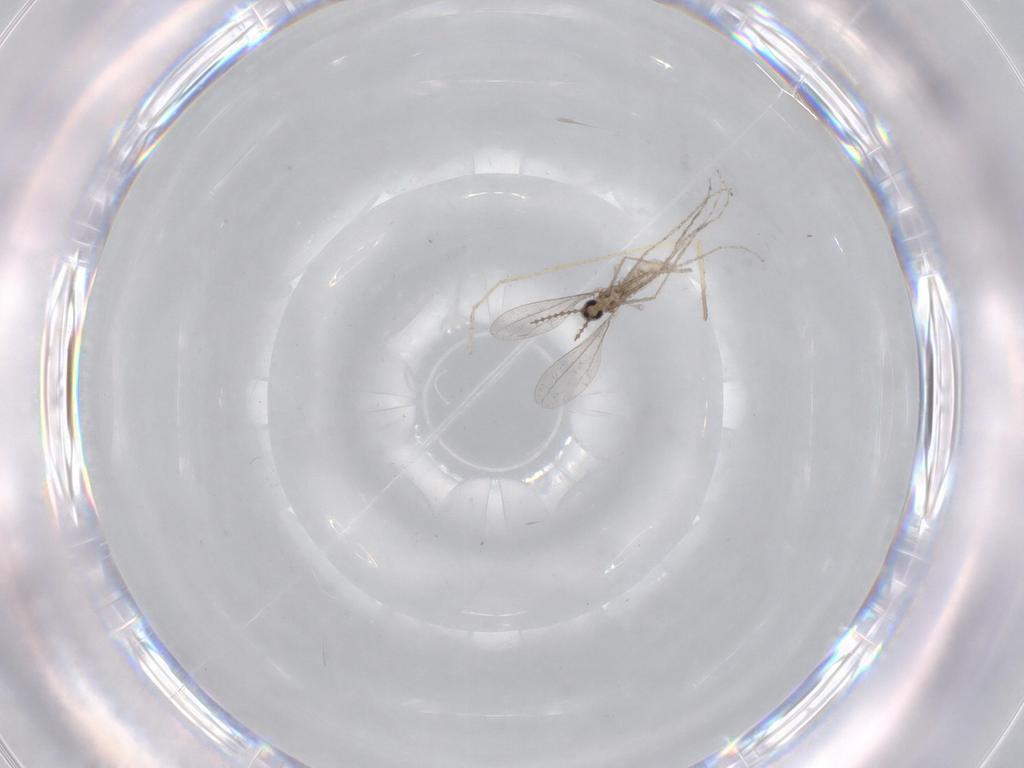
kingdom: Animalia
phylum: Arthropoda
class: Insecta
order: Diptera
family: Chironomidae
